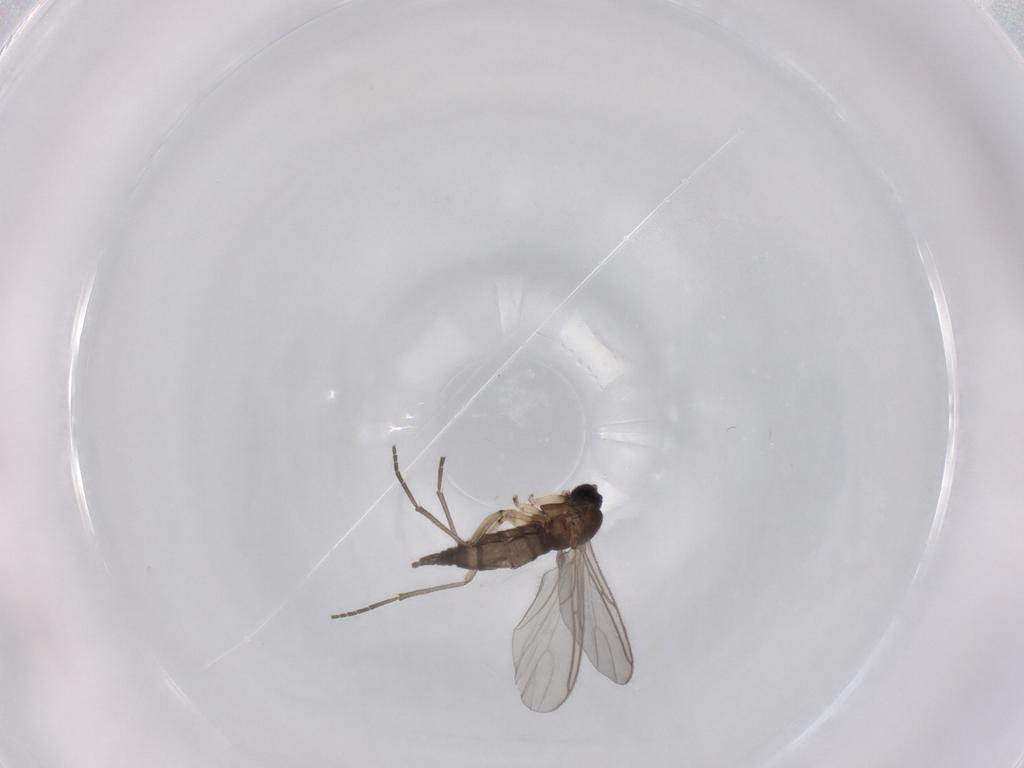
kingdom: Animalia
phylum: Arthropoda
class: Insecta
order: Diptera
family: Sciaridae
